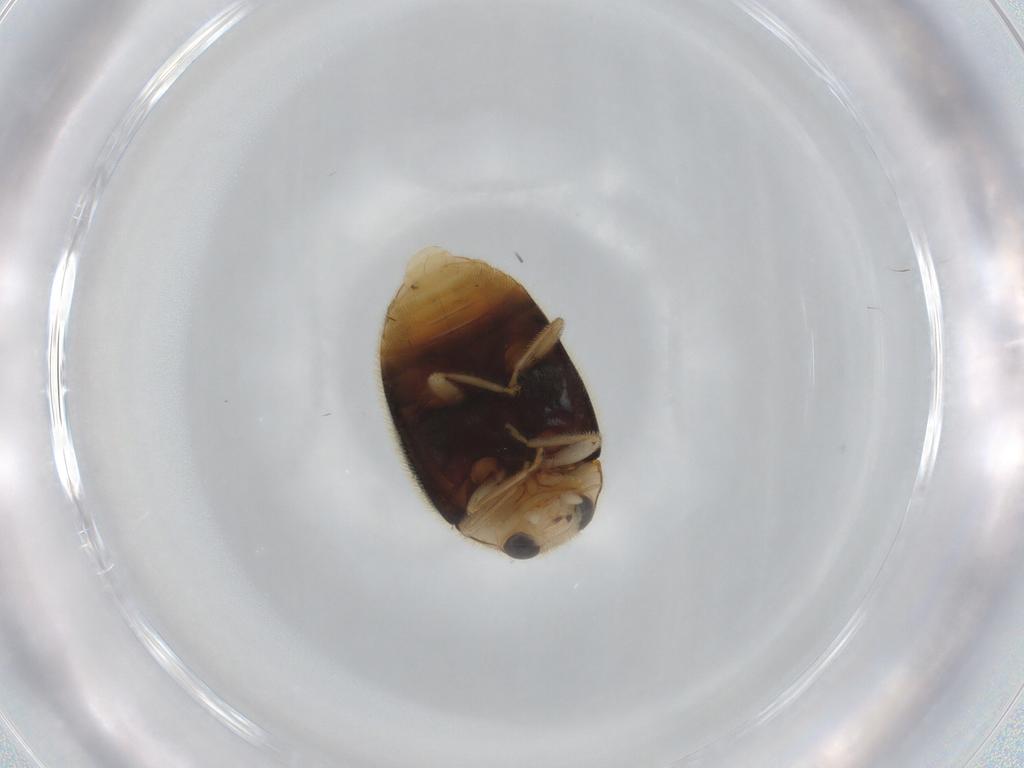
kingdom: Animalia
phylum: Arthropoda
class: Insecta
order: Coleoptera
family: Coccinellidae
